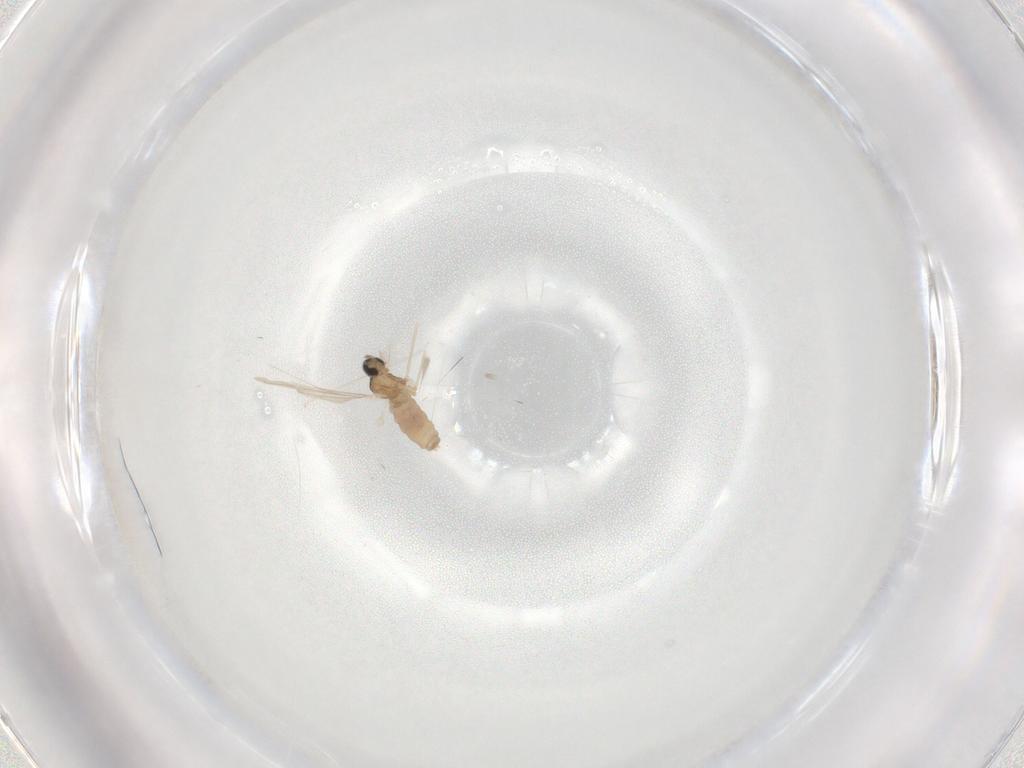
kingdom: Animalia
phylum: Arthropoda
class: Insecta
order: Diptera
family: Cecidomyiidae
